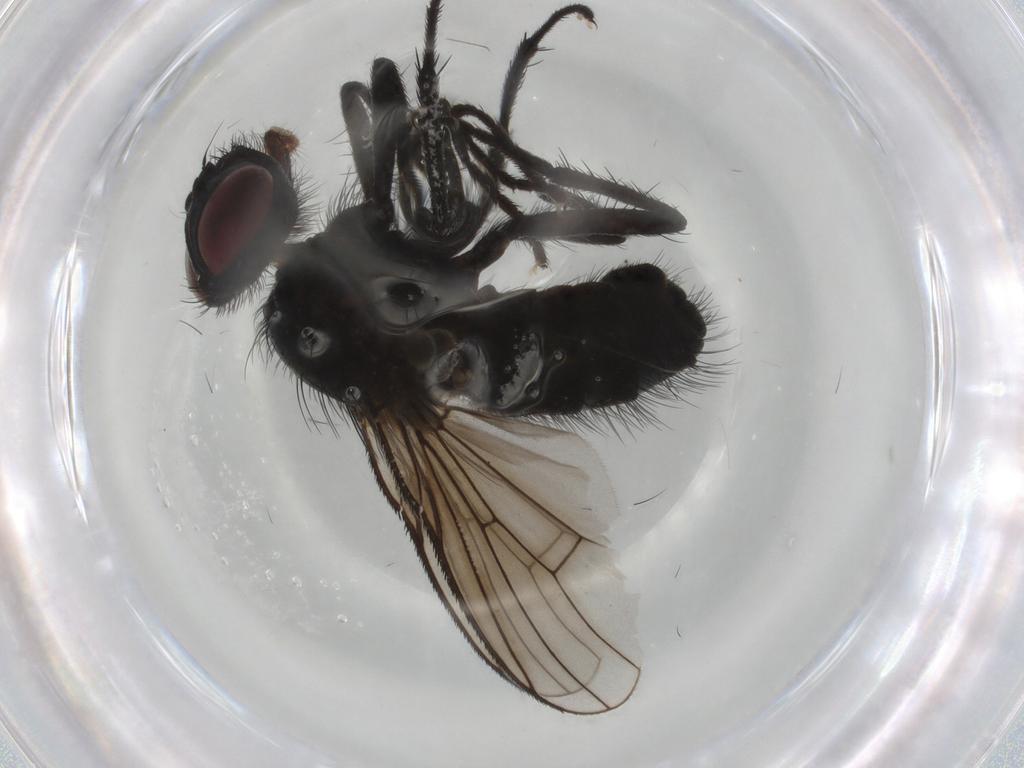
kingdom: Animalia
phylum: Arthropoda
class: Insecta
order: Diptera
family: Muscidae
